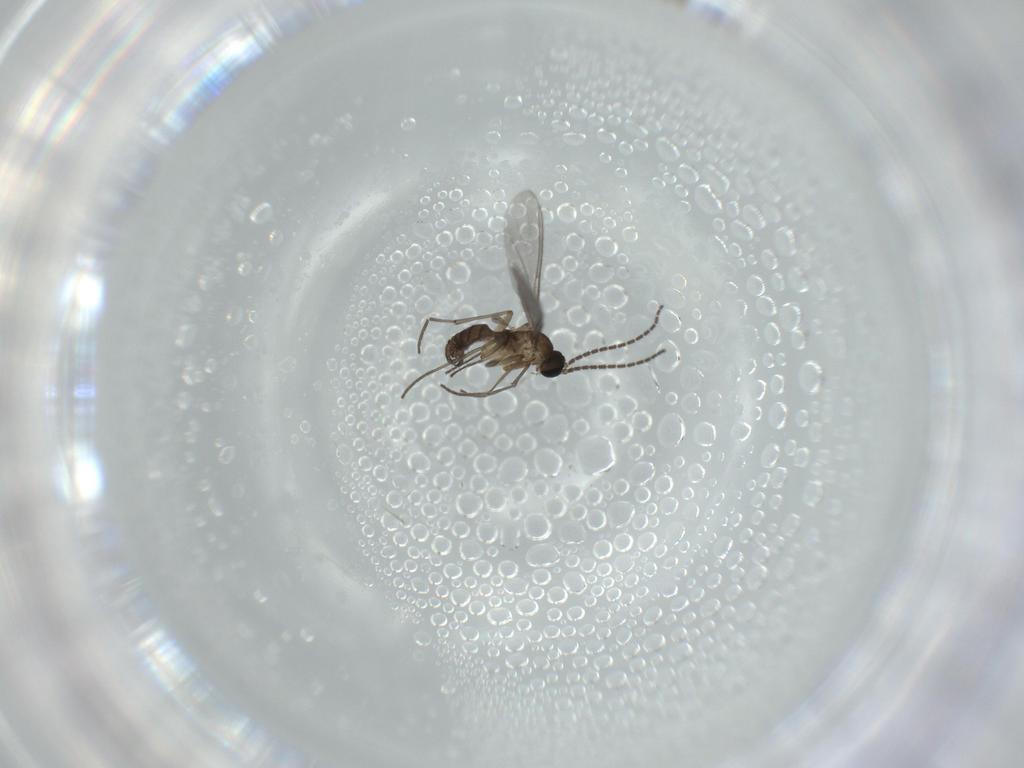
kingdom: Animalia
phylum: Arthropoda
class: Insecta
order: Diptera
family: Sciaridae
